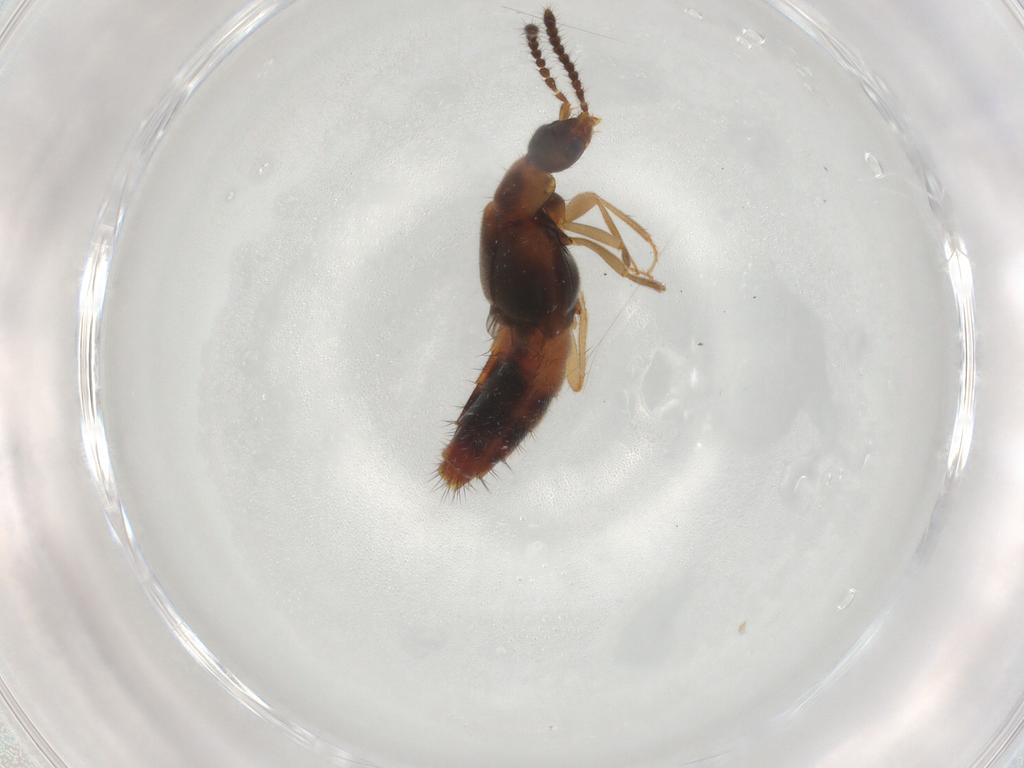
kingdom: Animalia
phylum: Arthropoda
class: Insecta
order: Coleoptera
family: Staphylinidae
